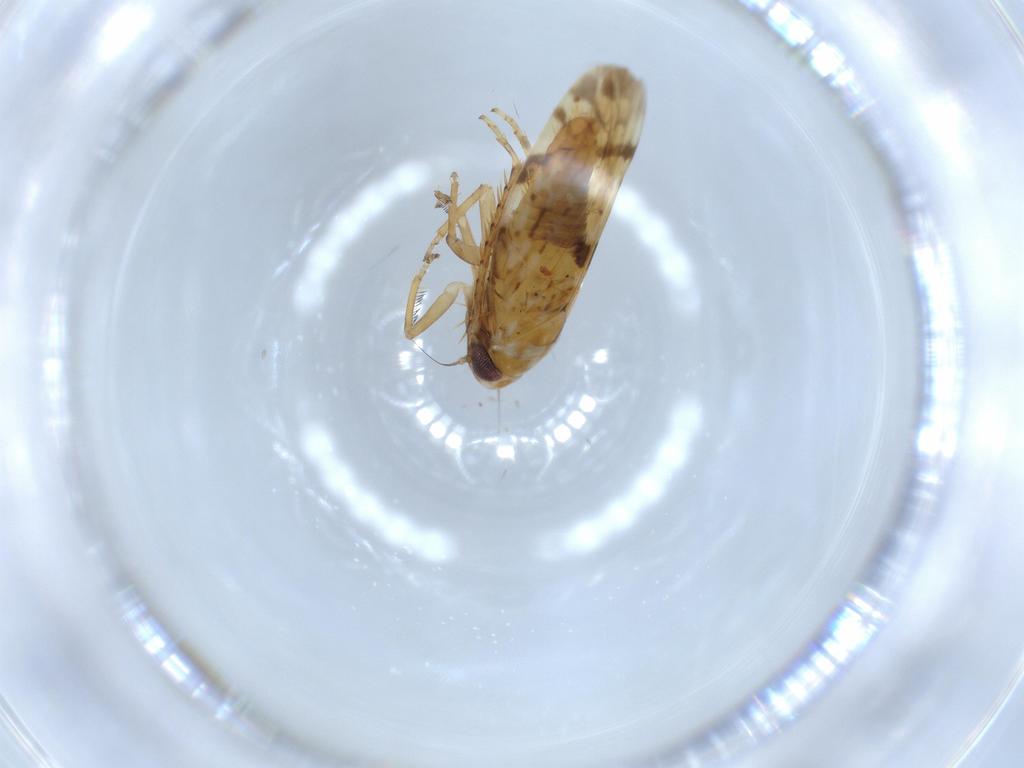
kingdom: Animalia
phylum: Arthropoda
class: Insecta
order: Hemiptera
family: Cicadellidae
